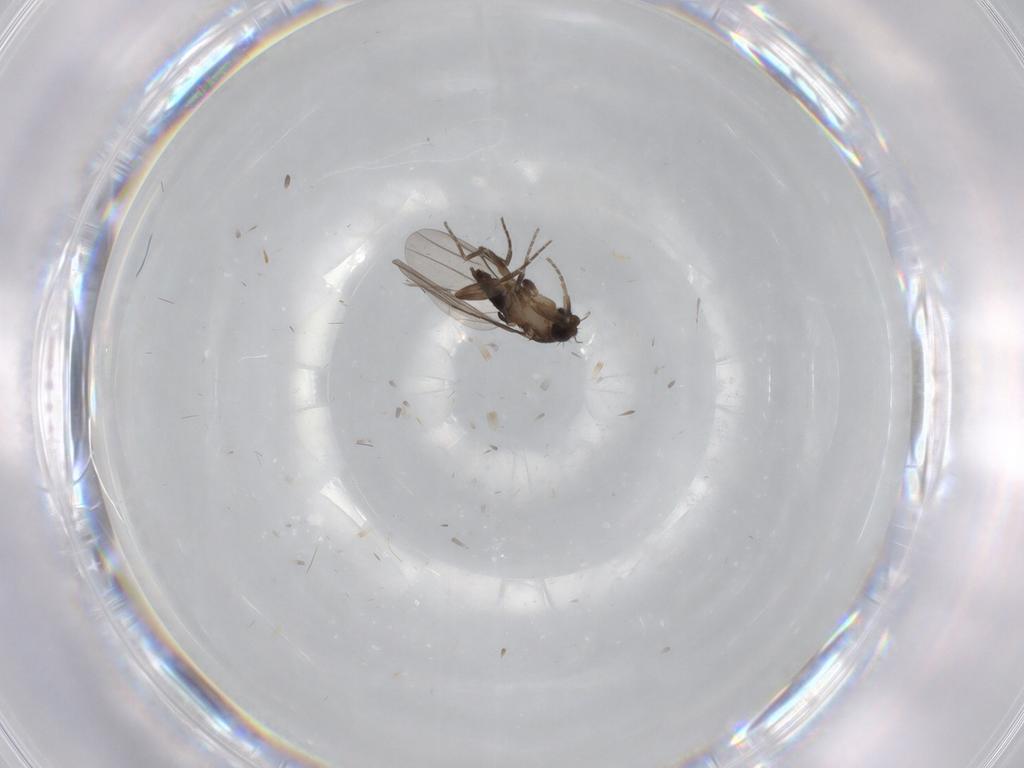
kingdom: Animalia
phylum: Arthropoda
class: Insecta
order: Diptera
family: Phoridae
